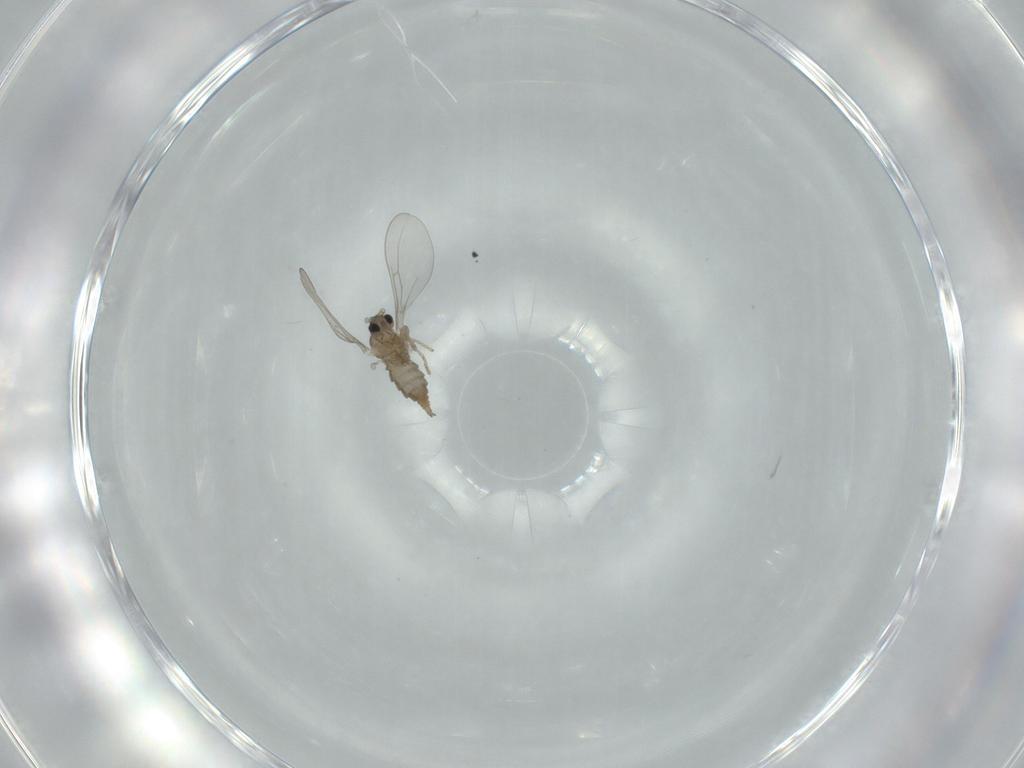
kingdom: Animalia
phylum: Arthropoda
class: Insecta
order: Diptera
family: Cecidomyiidae
